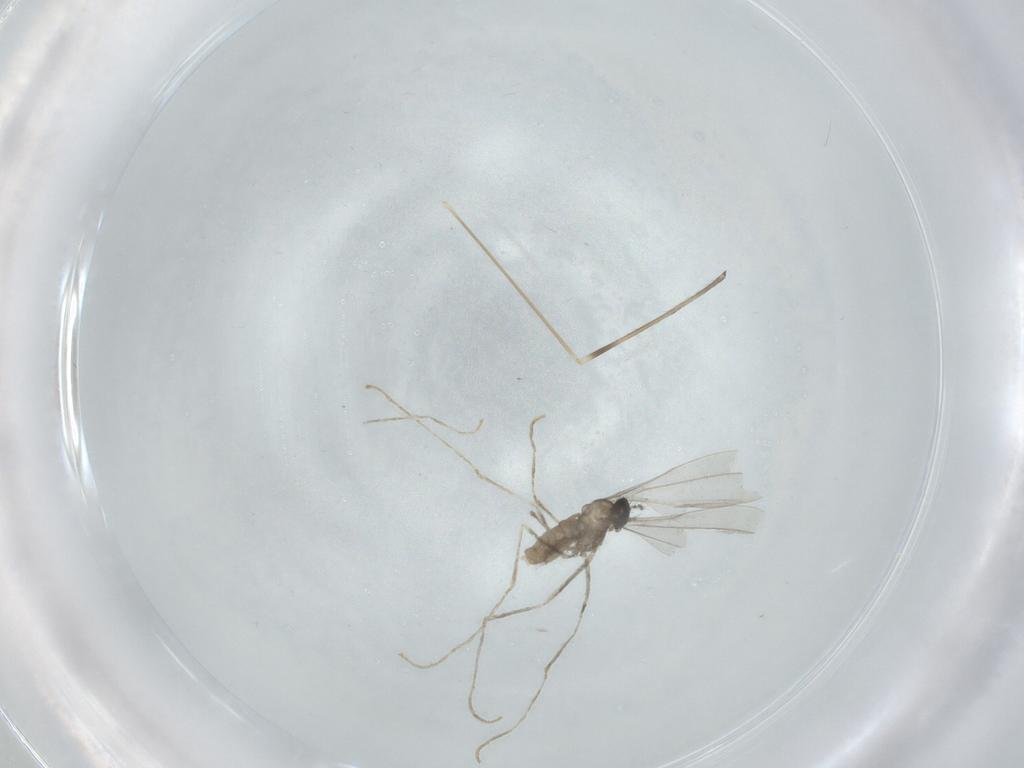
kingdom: Animalia
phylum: Arthropoda
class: Insecta
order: Diptera
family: Cecidomyiidae
